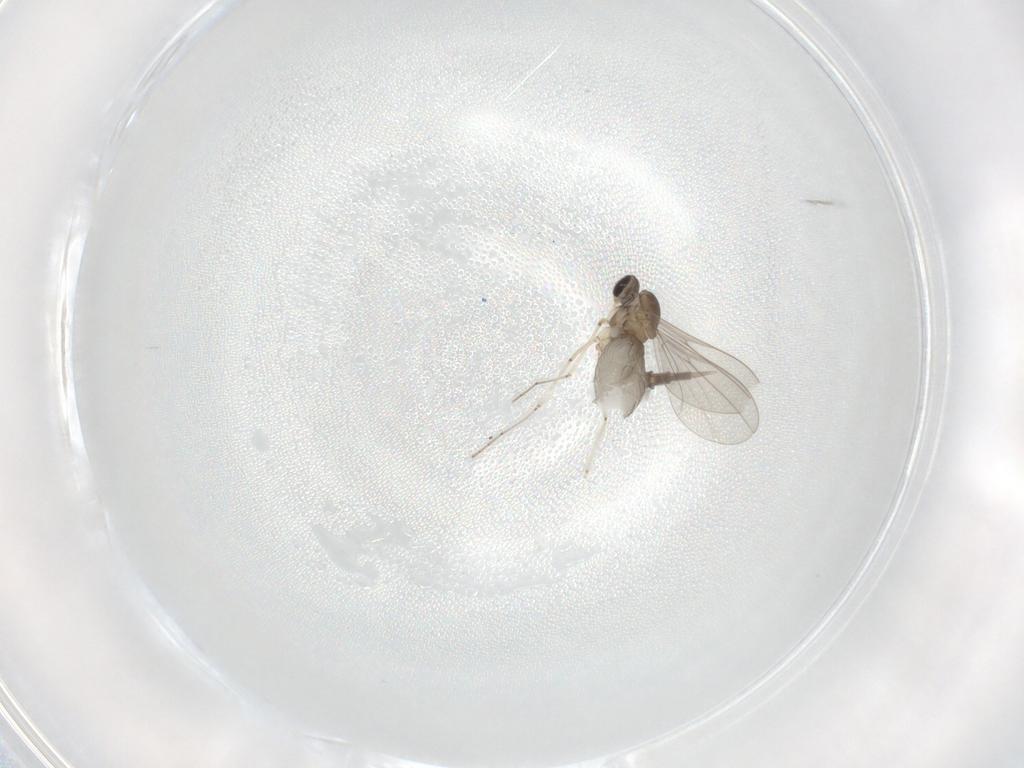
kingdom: Animalia
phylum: Arthropoda
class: Insecta
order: Diptera
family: Cecidomyiidae
